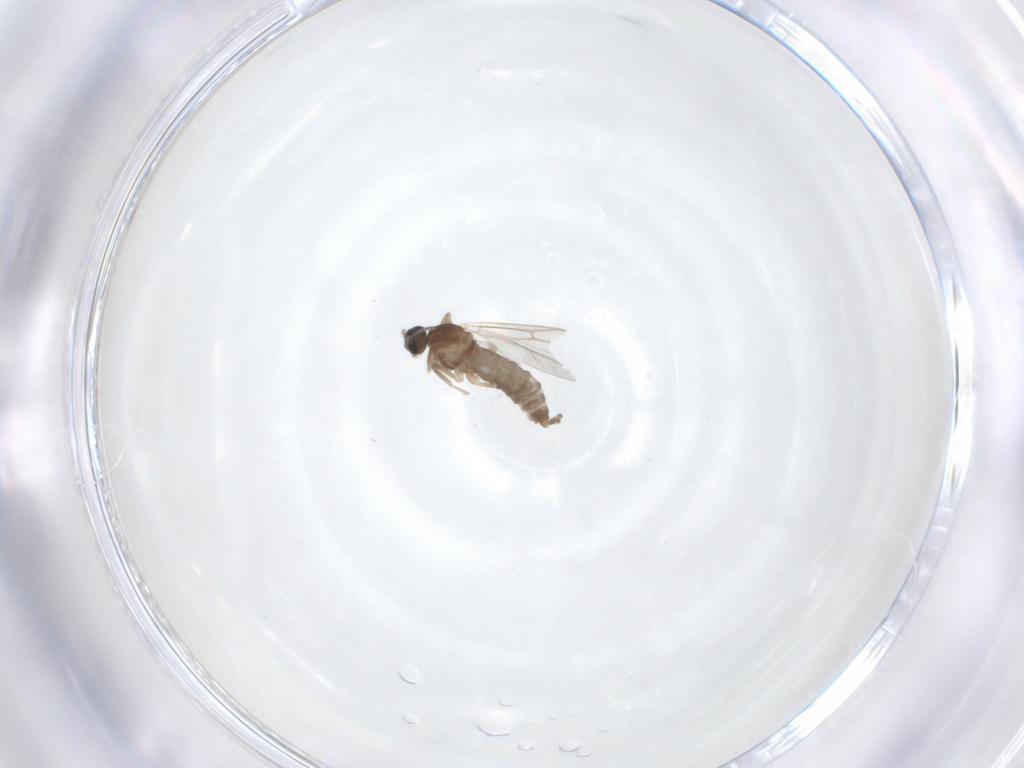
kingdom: Animalia
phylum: Arthropoda
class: Insecta
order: Diptera
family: Cecidomyiidae
